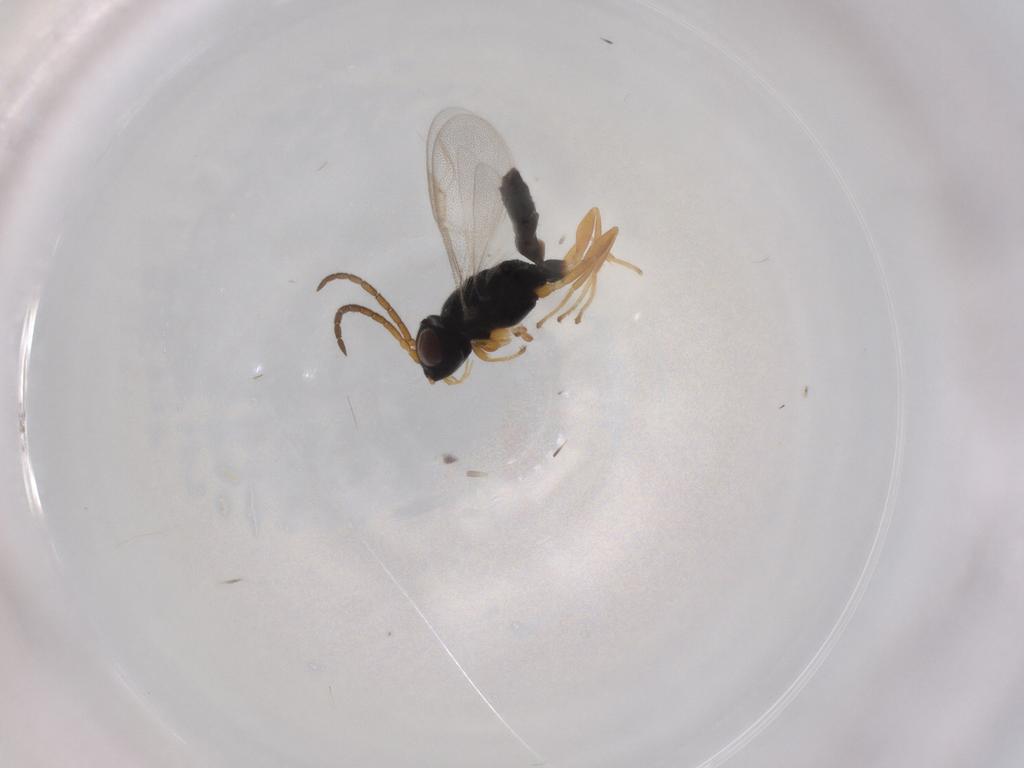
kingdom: Animalia
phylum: Arthropoda
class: Insecta
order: Hymenoptera
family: Dryinidae
